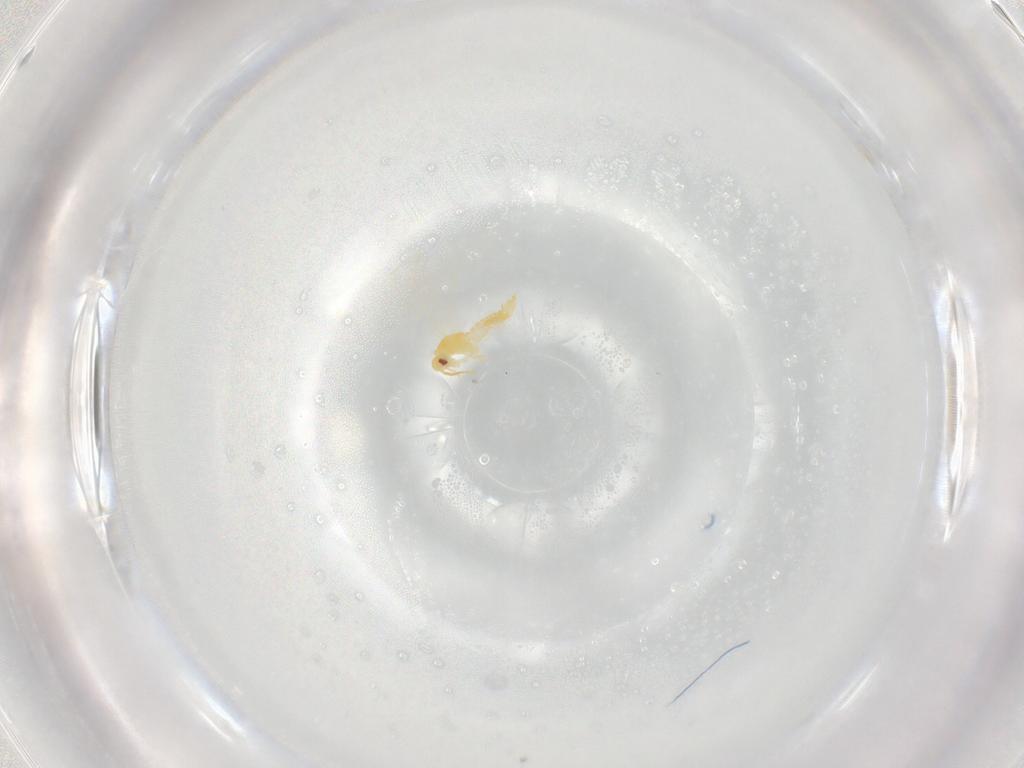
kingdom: Animalia
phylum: Arthropoda
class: Insecta
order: Hemiptera
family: Aleyrodidae
